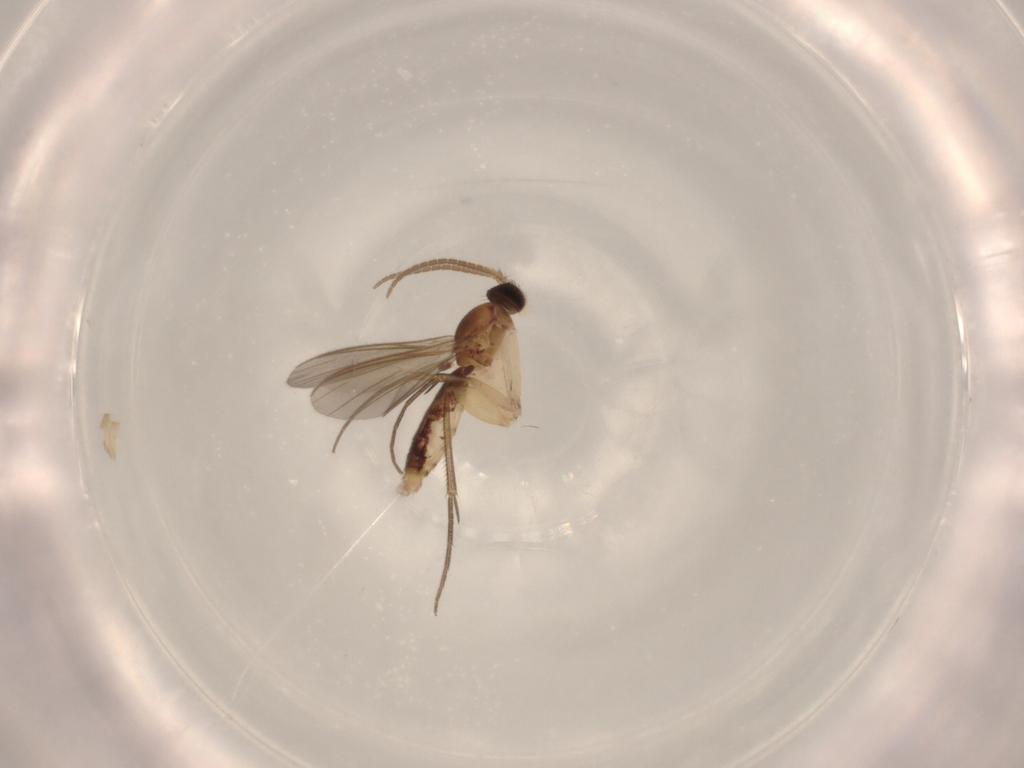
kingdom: Animalia
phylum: Arthropoda
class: Insecta
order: Diptera
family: Mycetophilidae
